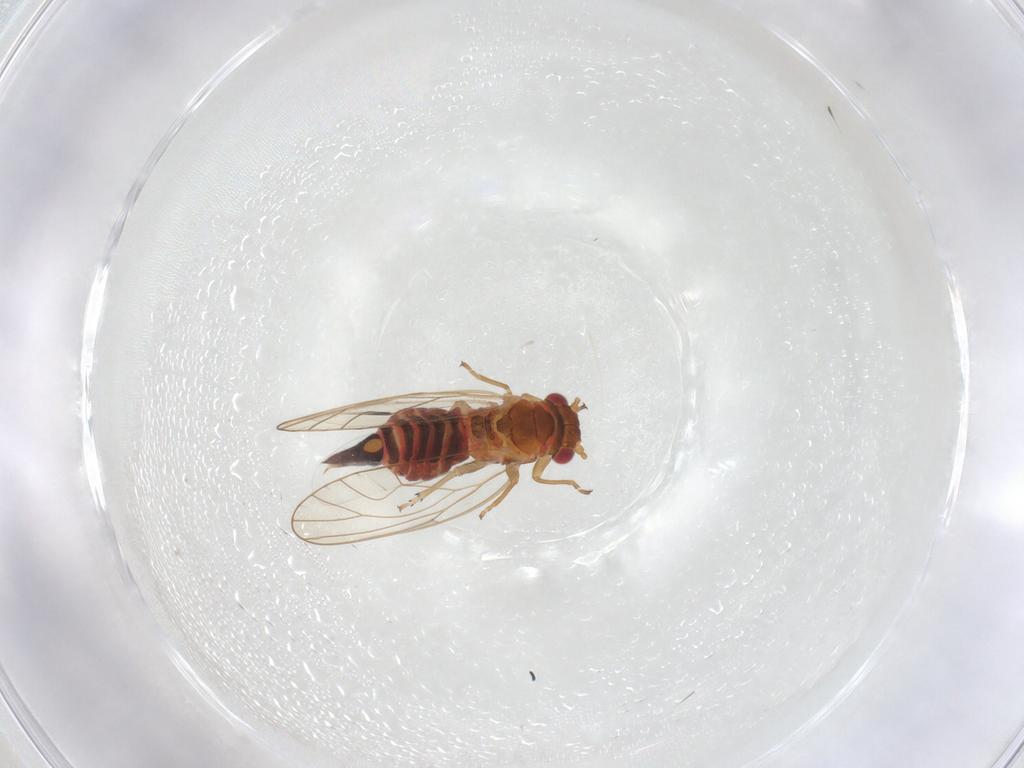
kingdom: Animalia
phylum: Arthropoda
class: Insecta
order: Hemiptera
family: Psyllidae
